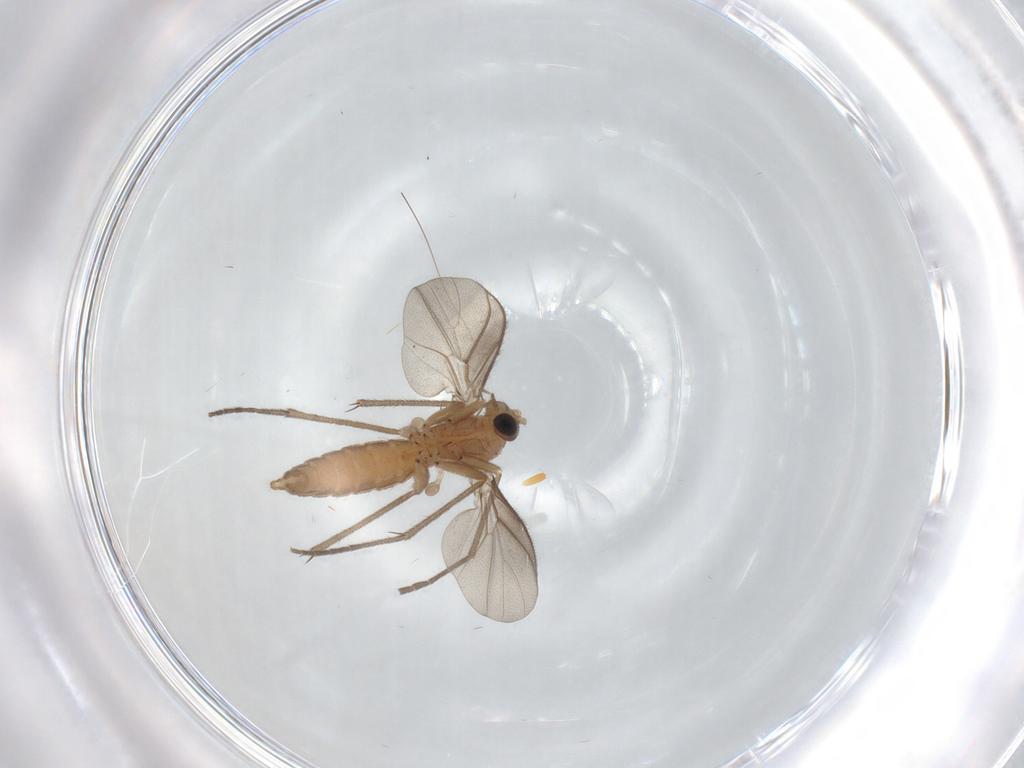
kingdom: Animalia
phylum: Arthropoda
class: Insecta
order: Diptera
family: Diadocidiidae
